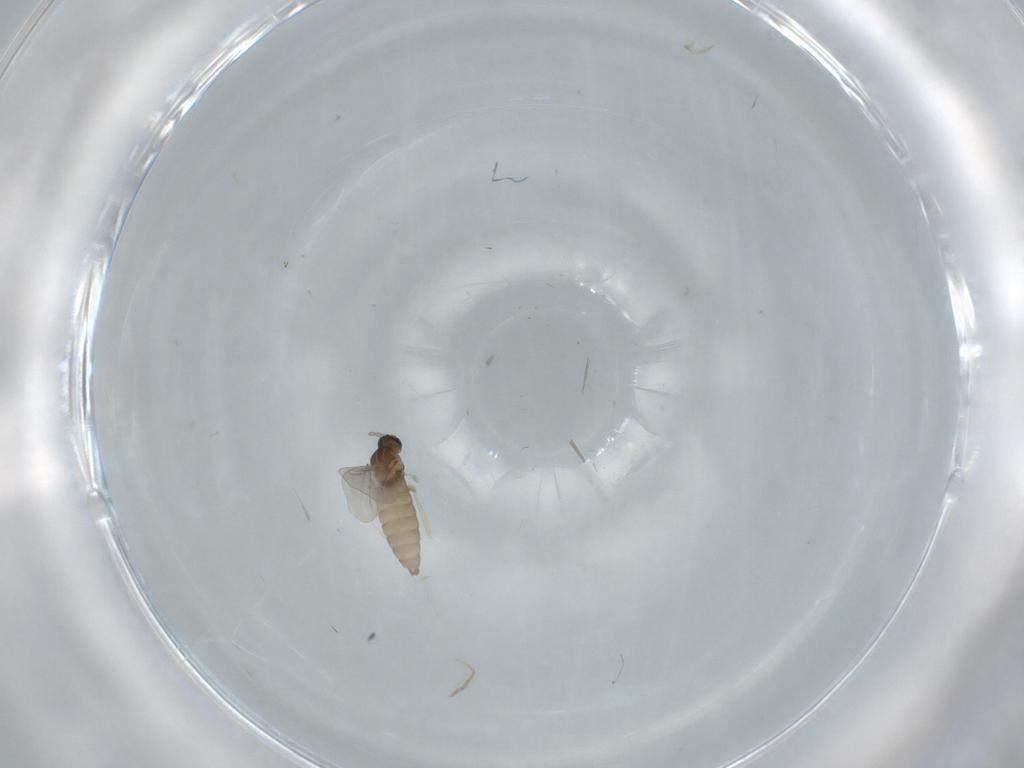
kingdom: Animalia
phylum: Arthropoda
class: Insecta
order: Diptera
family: Cecidomyiidae
